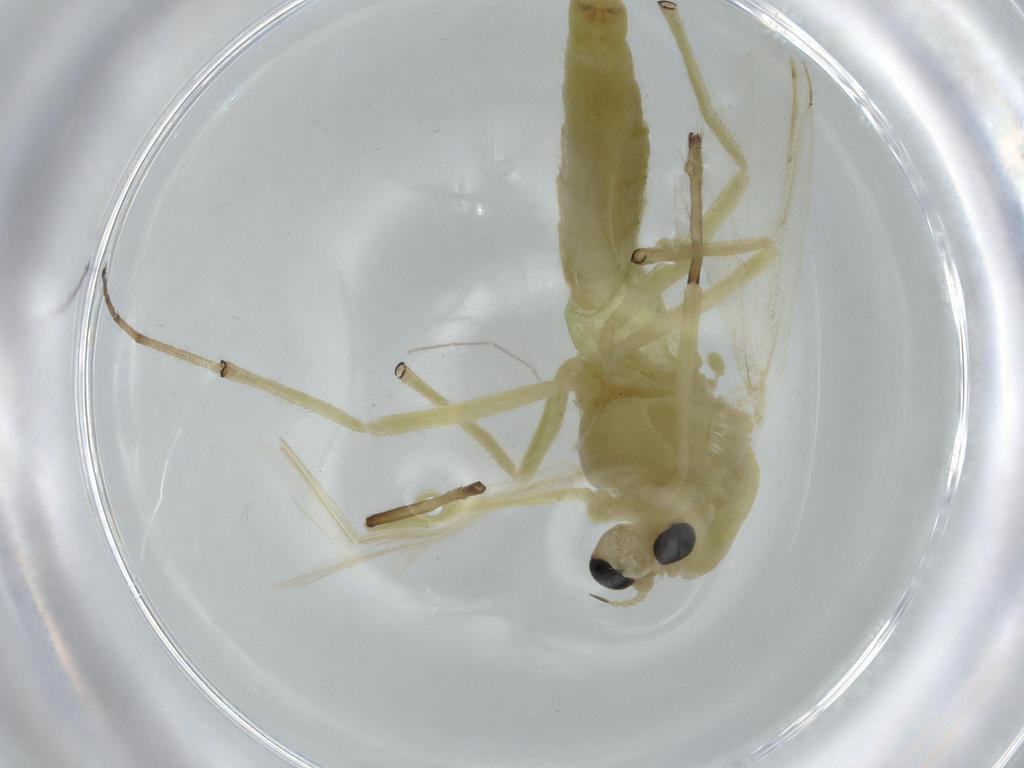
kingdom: Animalia
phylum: Arthropoda
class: Insecta
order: Diptera
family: Chironomidae
